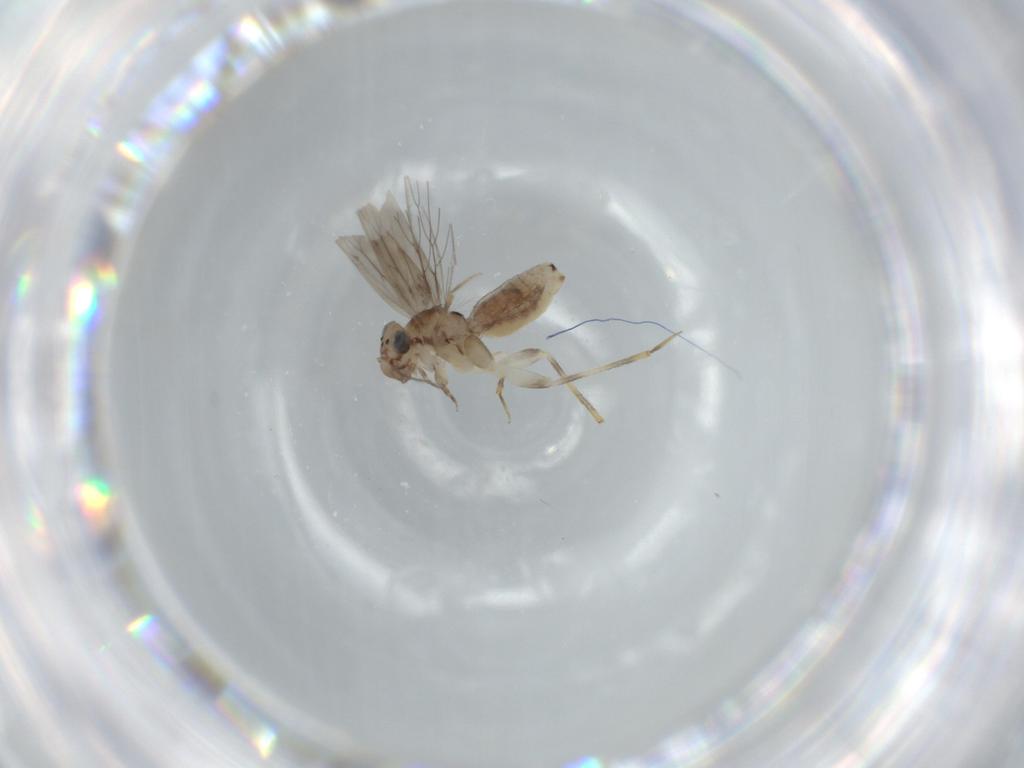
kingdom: Animalia
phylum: Arthropoda
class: Insecta
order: Psocodea
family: Lepidopsocidae
